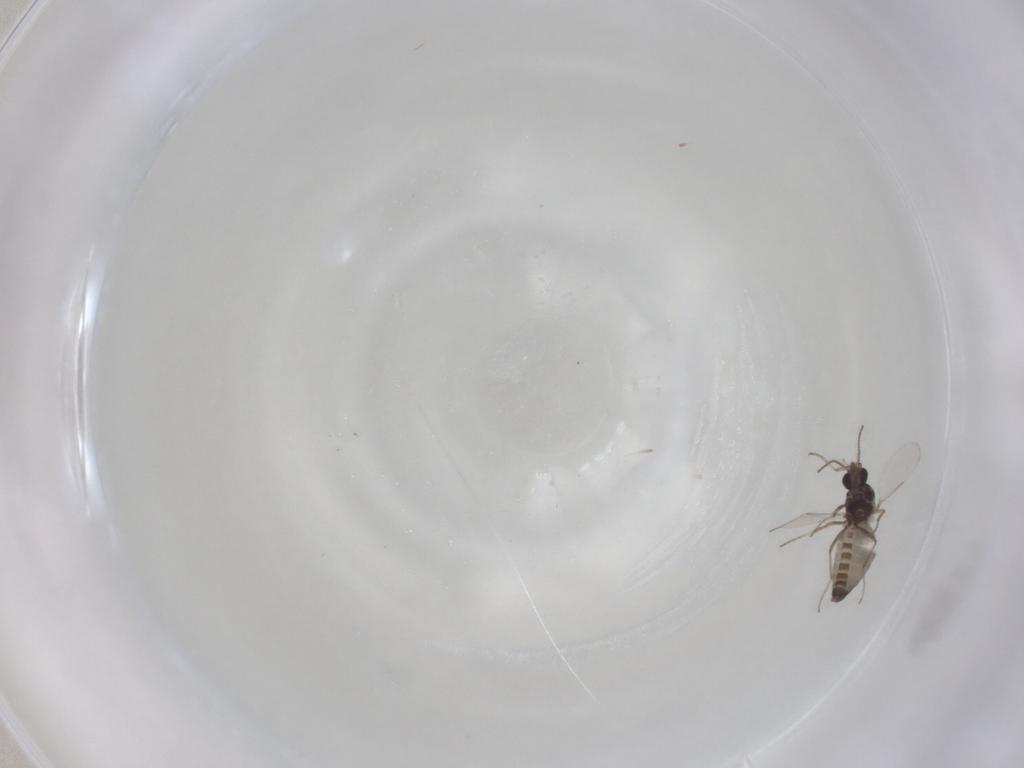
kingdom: Animalia
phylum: Arthropoda
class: Insecta
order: Diptera
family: Ceratopogonidae
